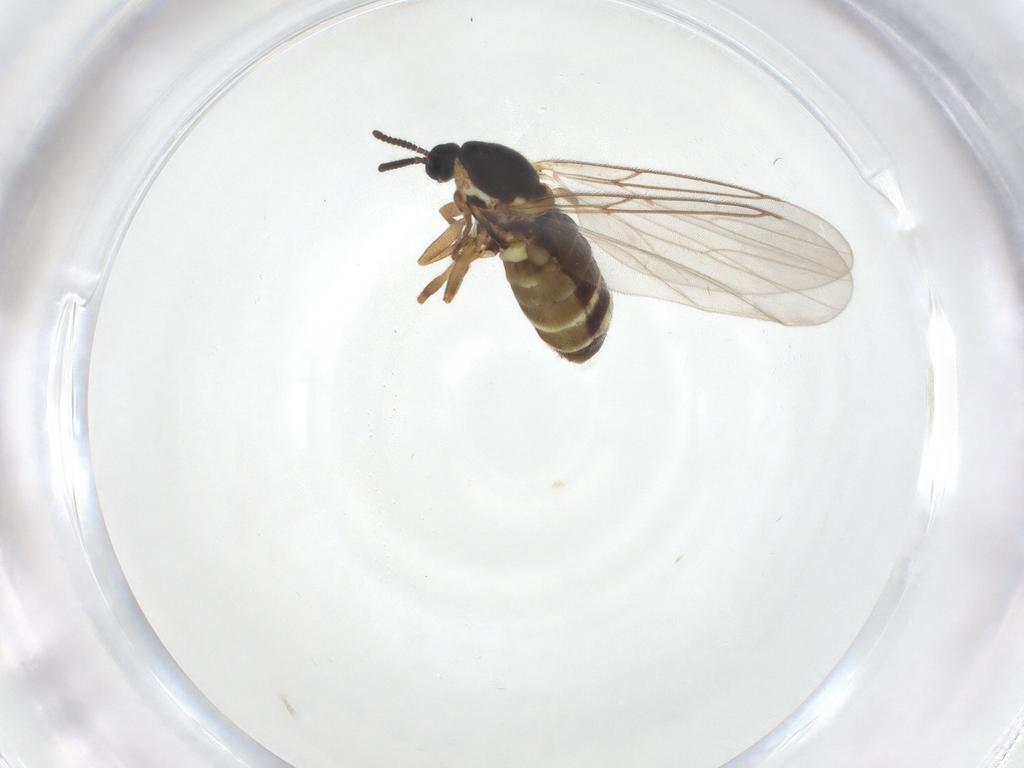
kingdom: Animalia
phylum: Arthropoda
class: Insecta
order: Diptera
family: Scatopsidae
